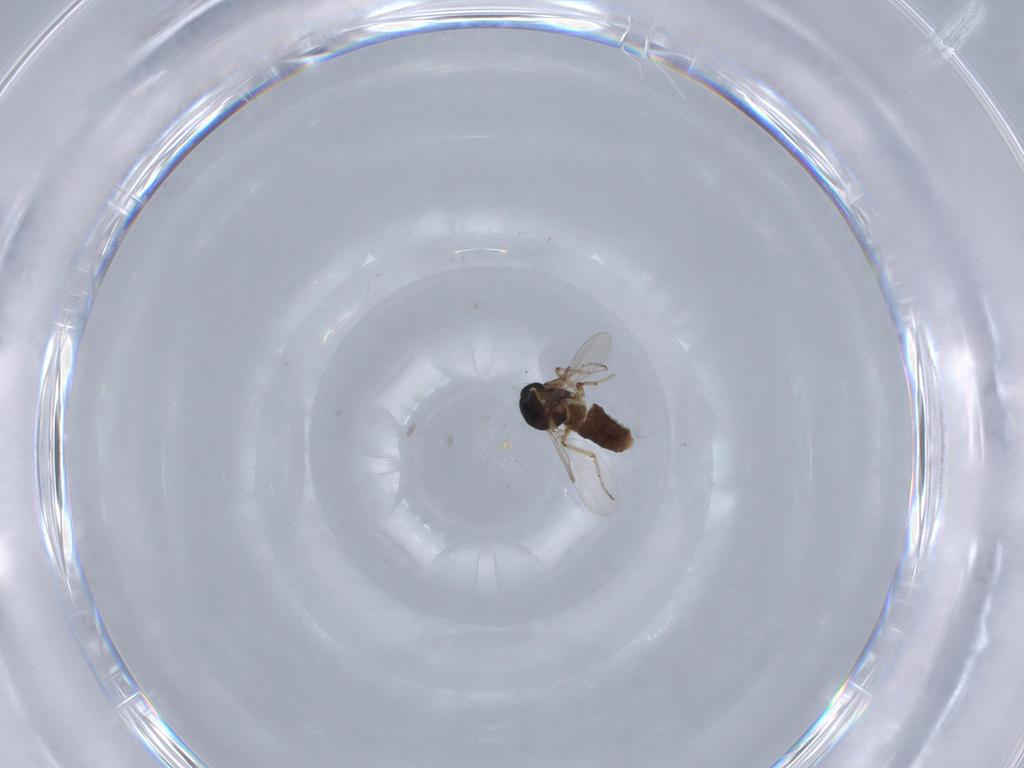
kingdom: Animalia
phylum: Arthropoda
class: Insecta
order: Diptera
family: Ceratopogonidae
